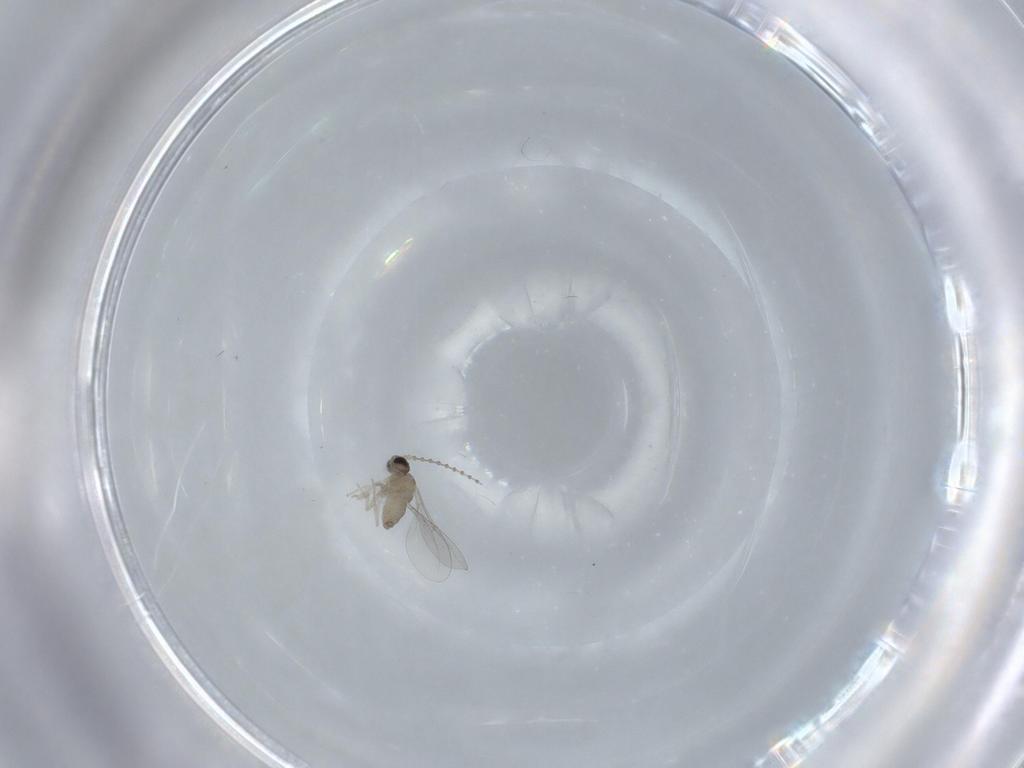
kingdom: Animalia
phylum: Arthropoda
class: Insecta
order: Diptera
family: Cecidomyiidae
